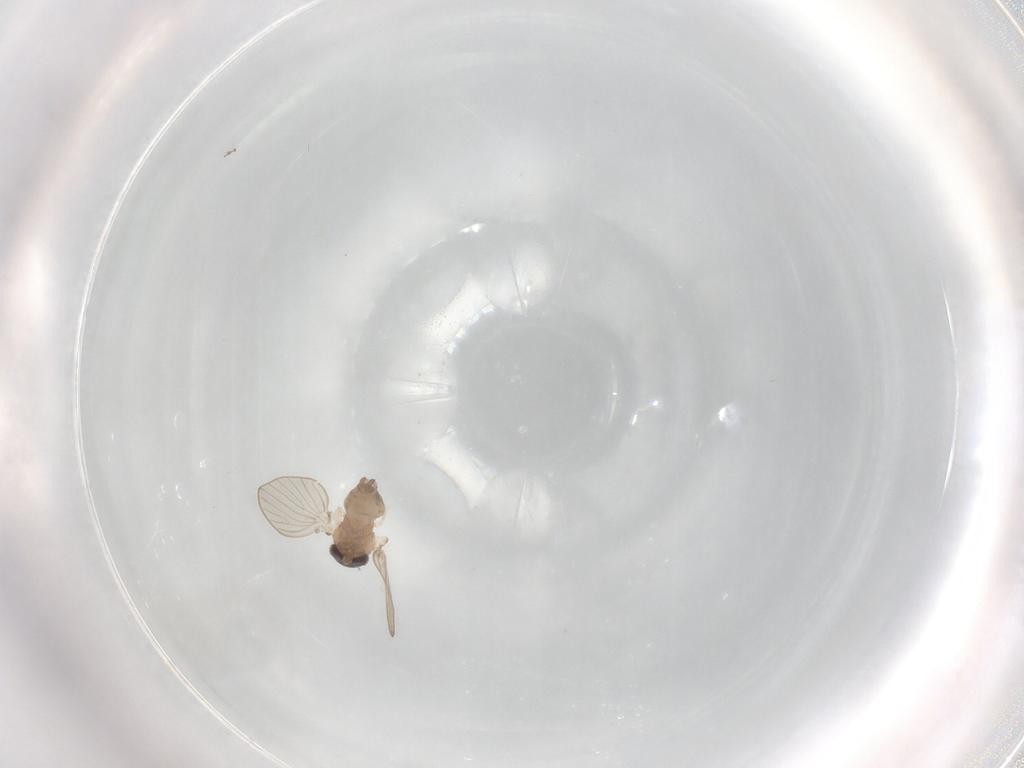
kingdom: Animalia
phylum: Arthropoda
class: Insecta
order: Diptera
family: Psychodidae
